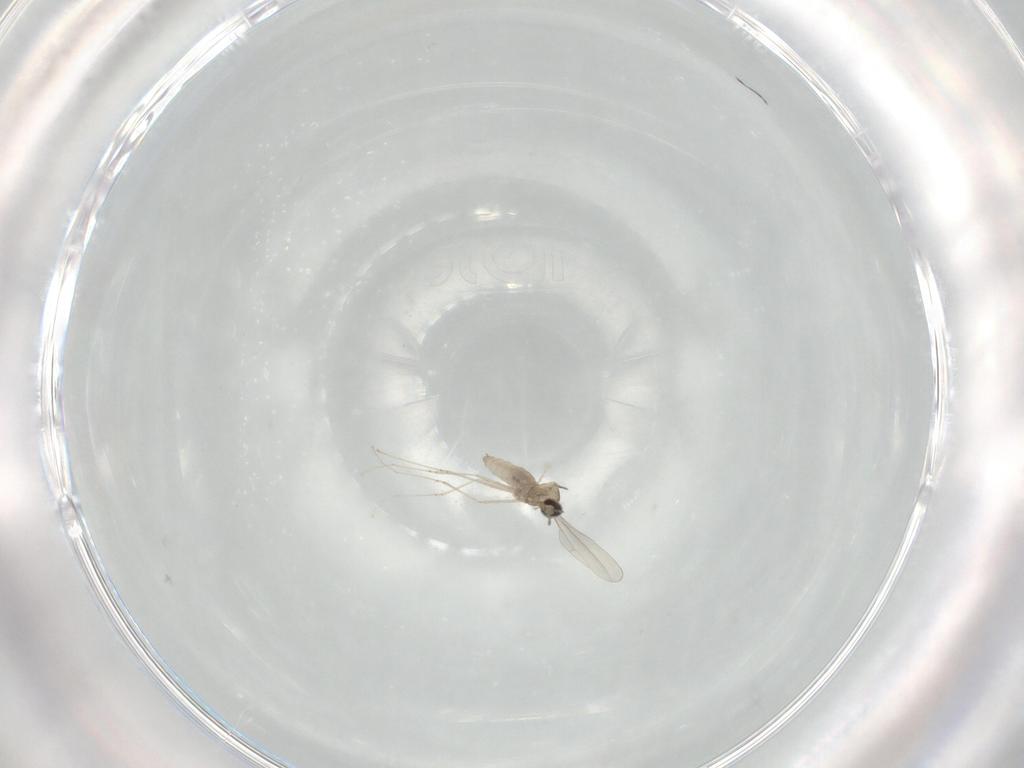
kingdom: Animalia
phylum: Arthropoda
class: Insecta
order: Diptera
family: Cecidomyiidae
